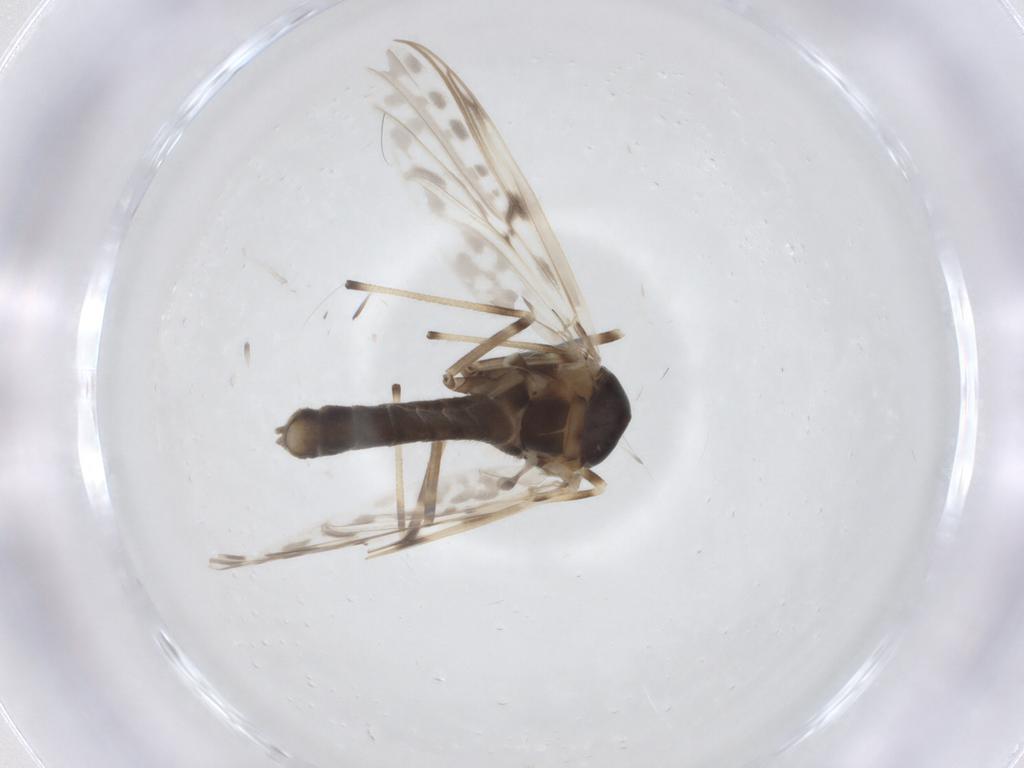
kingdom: Animalia
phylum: Arthropoda
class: Insecta
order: Diptera
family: Chironomidae
